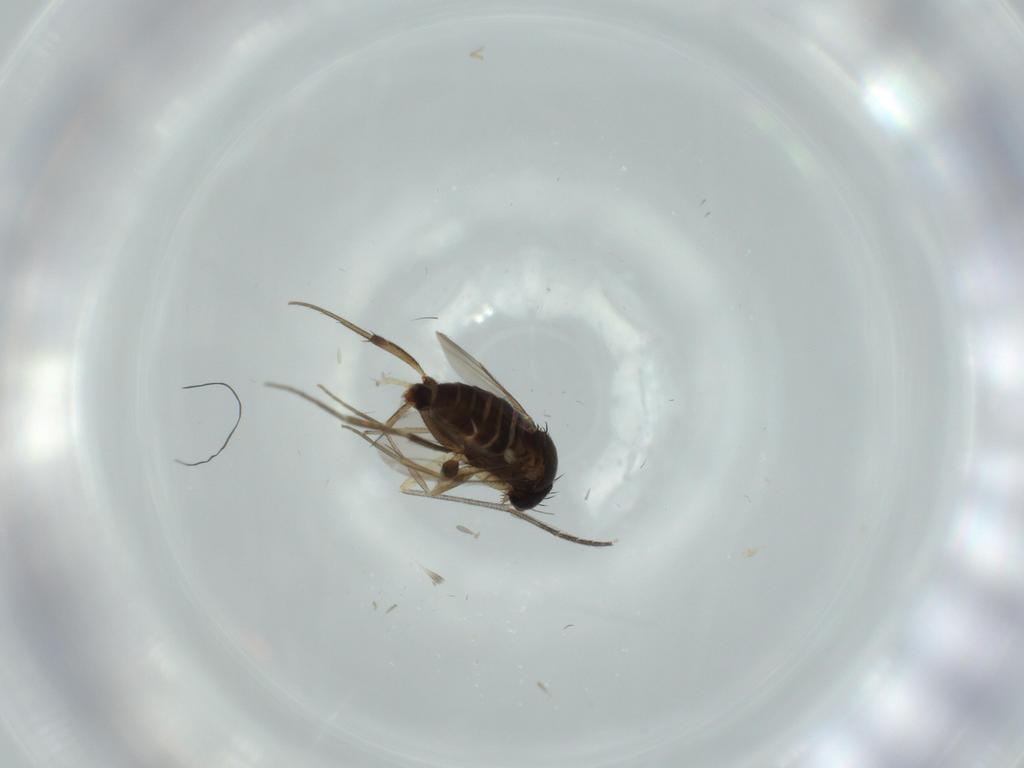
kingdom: Animalia
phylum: Arthropoda
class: Insecta
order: Diptera
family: Phoridae
